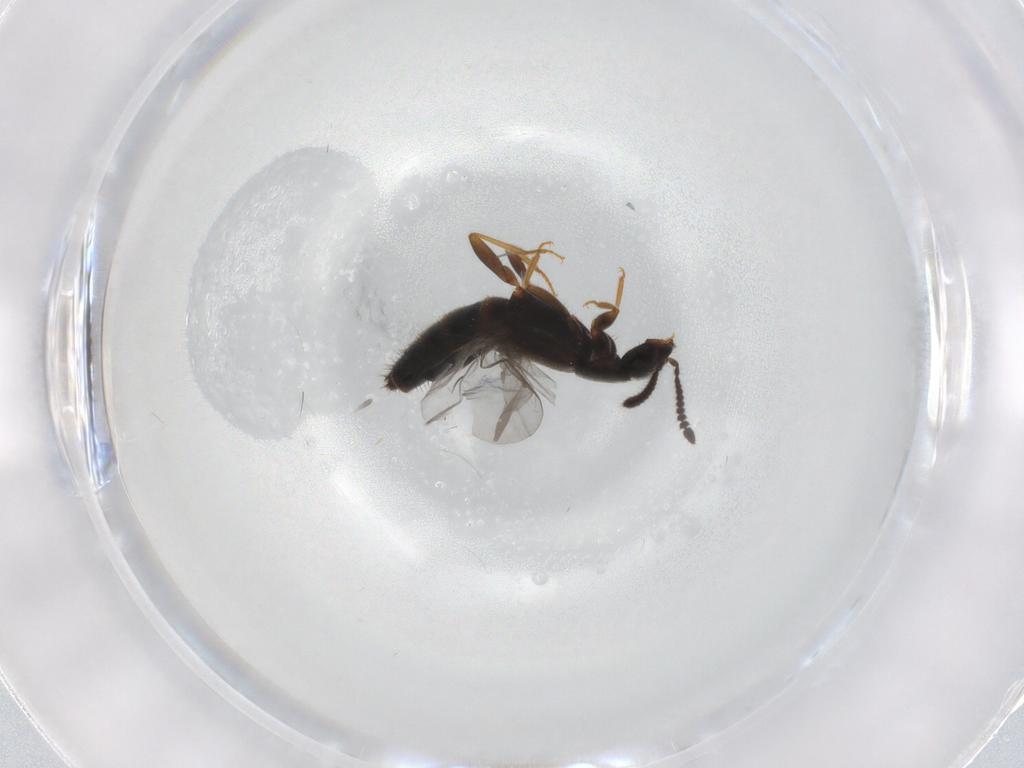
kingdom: Animalia
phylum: Arthropoda
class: Insecta
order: Coleoptera
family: Staphylinidae
